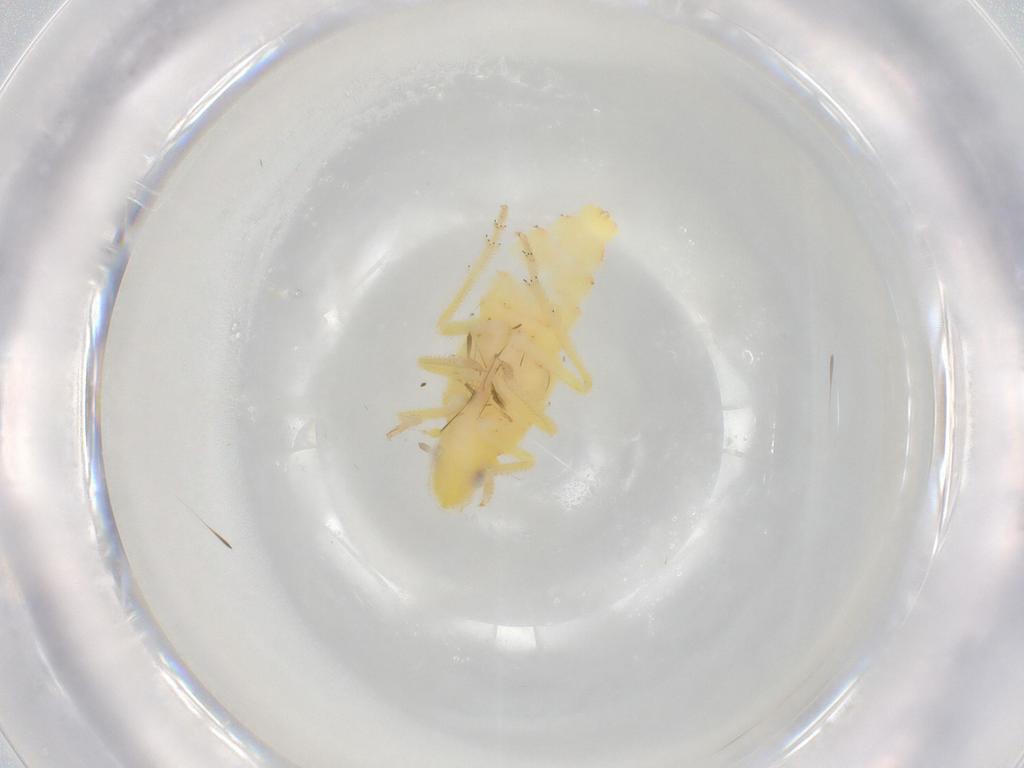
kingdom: Animalia
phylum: Arthropoda
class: Insecta
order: Hemiptera
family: Tropiduchidae
